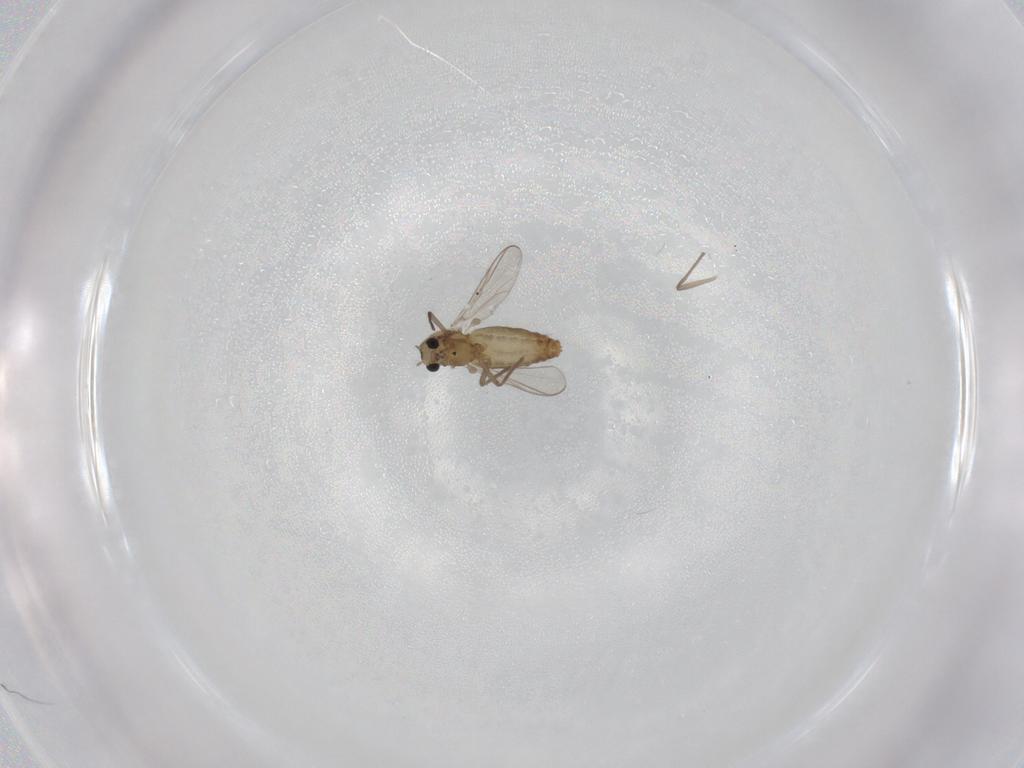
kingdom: Animalia
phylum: Arthropoda
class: Insecta
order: Diptera
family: Chironomidae
